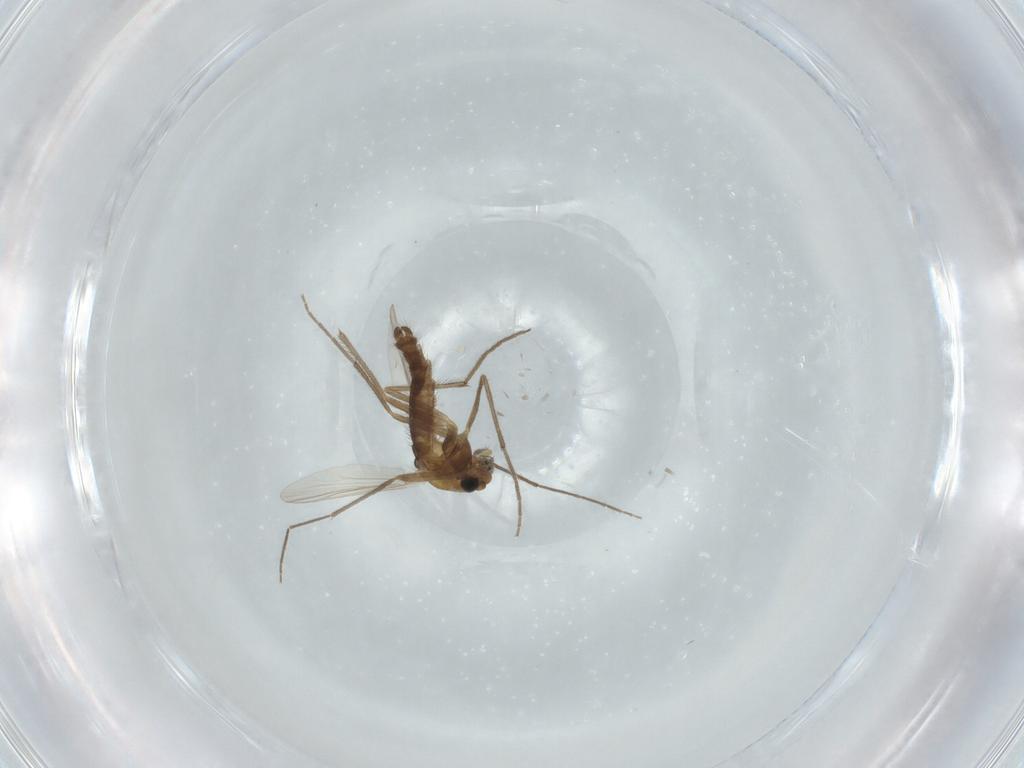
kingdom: Animalia
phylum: Arthropoda
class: Insecta
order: Diptera
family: Chironomidae
